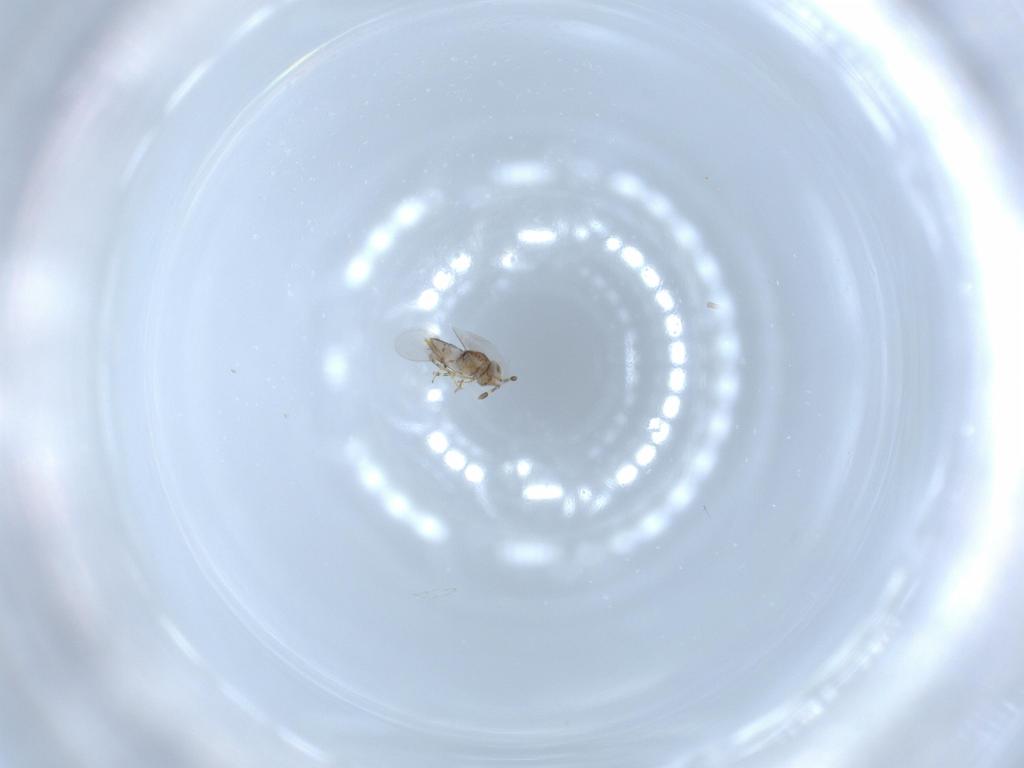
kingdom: Animalia
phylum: Arthropoda
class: Insecta
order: Hymenoptera
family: Encyrtidae
